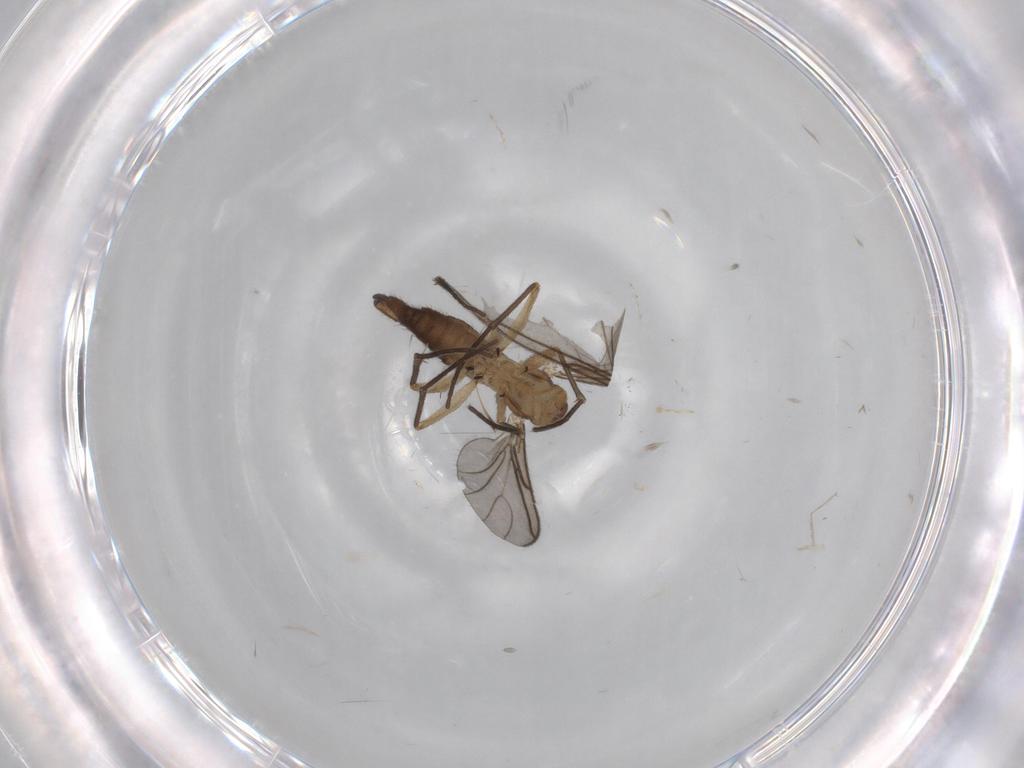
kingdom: Animalia
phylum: Arthropoda
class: Insecta
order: Diptera
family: Sciaridae
